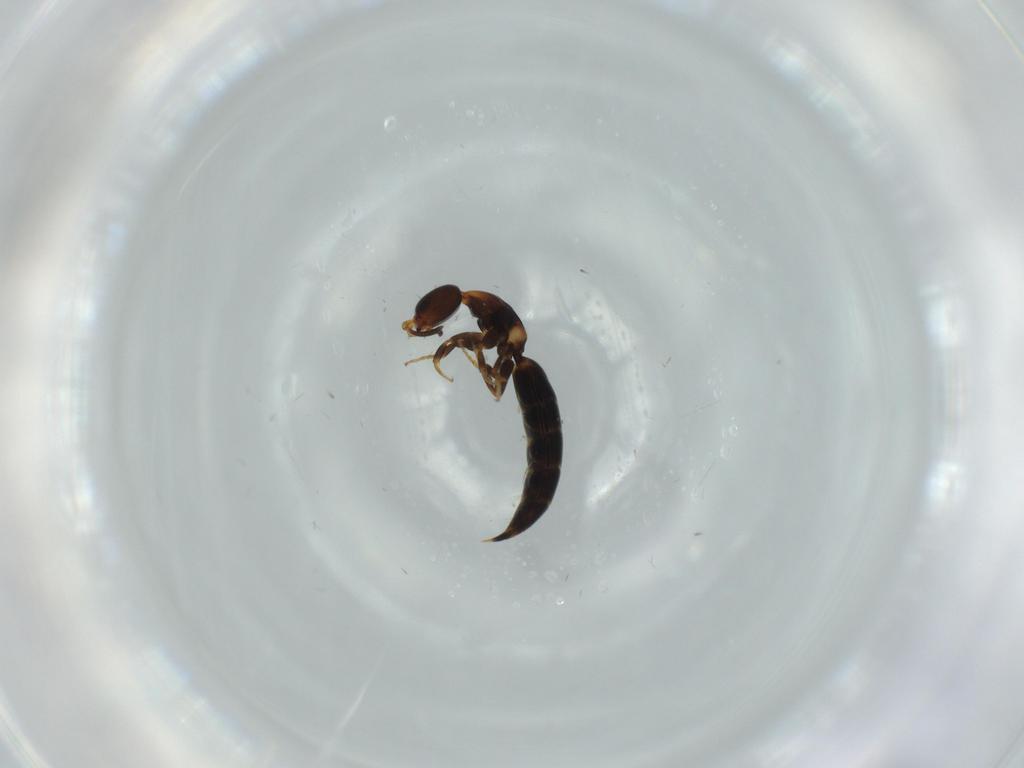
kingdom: Animalia
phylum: Arthropoda
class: Insecta
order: Hymenoptera
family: Bethylidae
